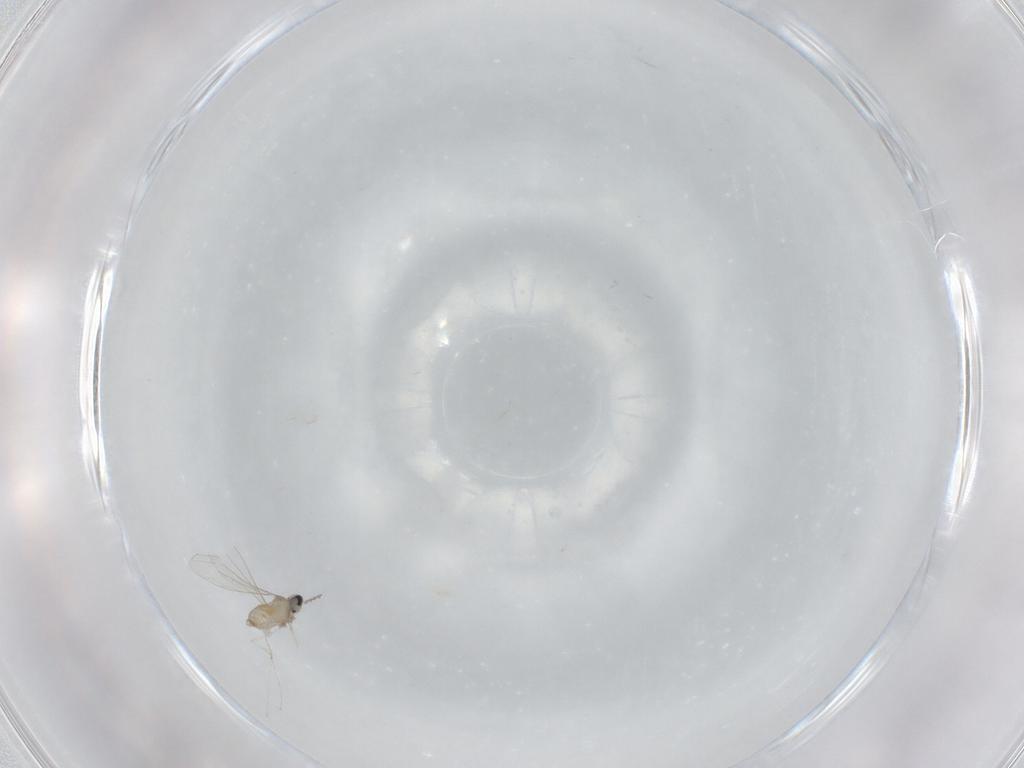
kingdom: Animalia
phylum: Arthropoda
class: Insecta
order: Diptera
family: Cecidomyiidae
